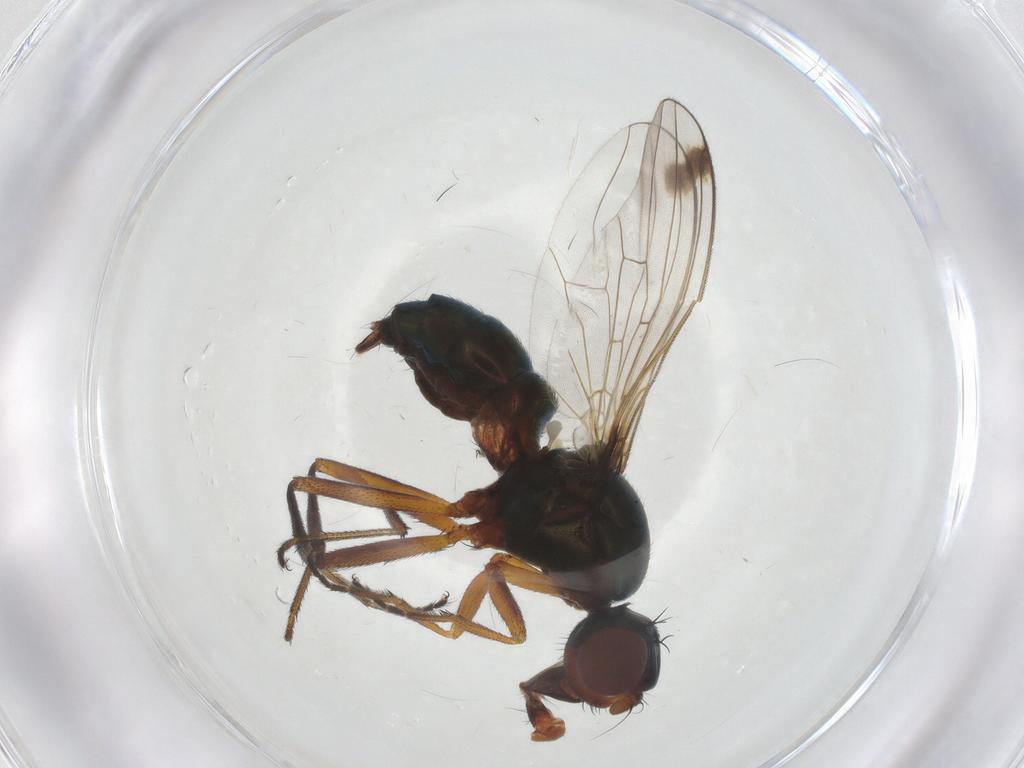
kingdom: Animalia
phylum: Arthropoda
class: Insecta
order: Diptera
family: Sepsidae
